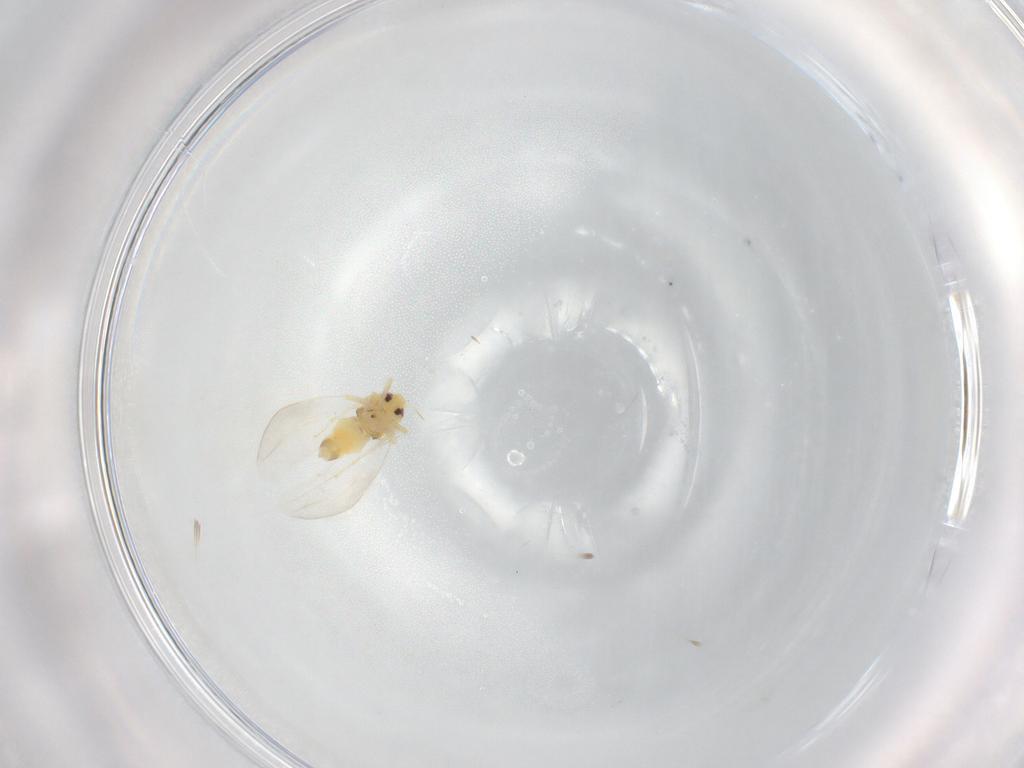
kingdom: Animalia
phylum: Arthropoda
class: Insecta
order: Hemiptera
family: Aleyrodidae
